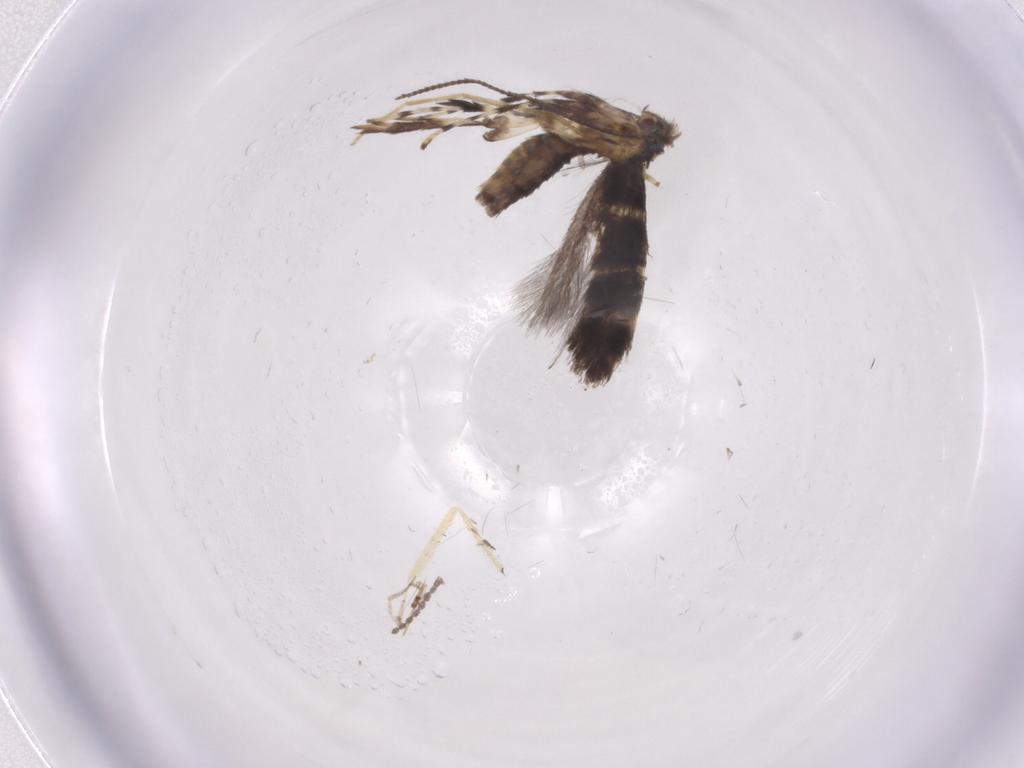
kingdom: Animalia
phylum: Arthropoda
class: Insecta
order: Lepidoptera
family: Gracillariidae
